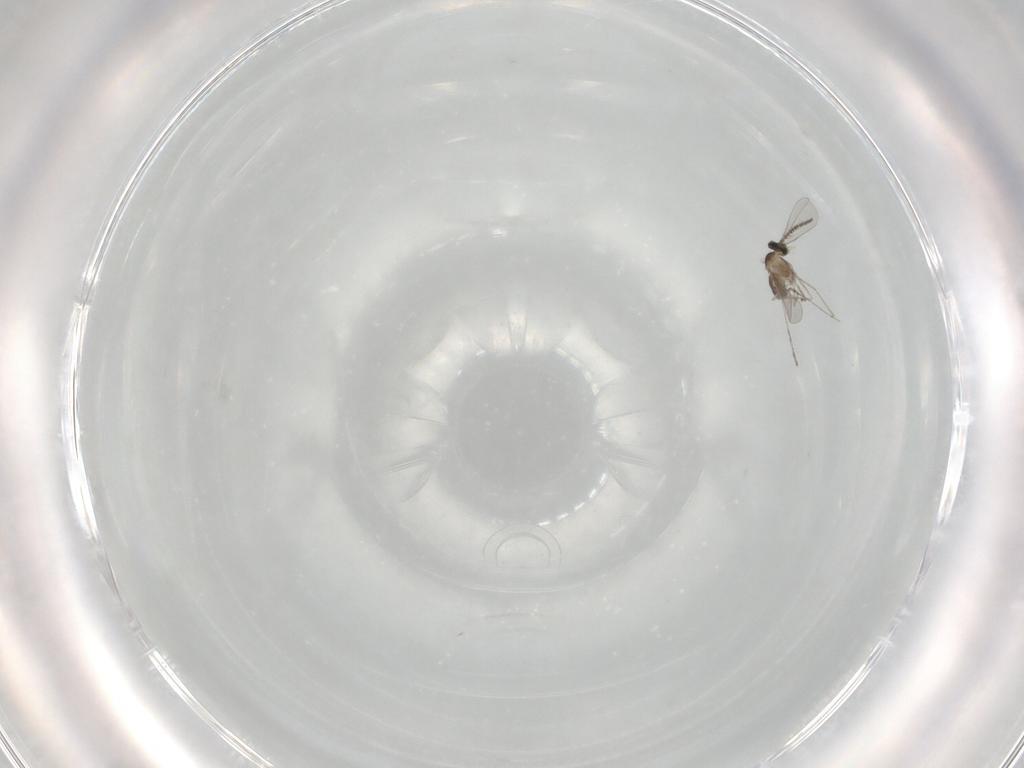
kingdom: Animalia
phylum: Arthropoda
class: Insecta
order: Diptera
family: Cecidomyiidae
